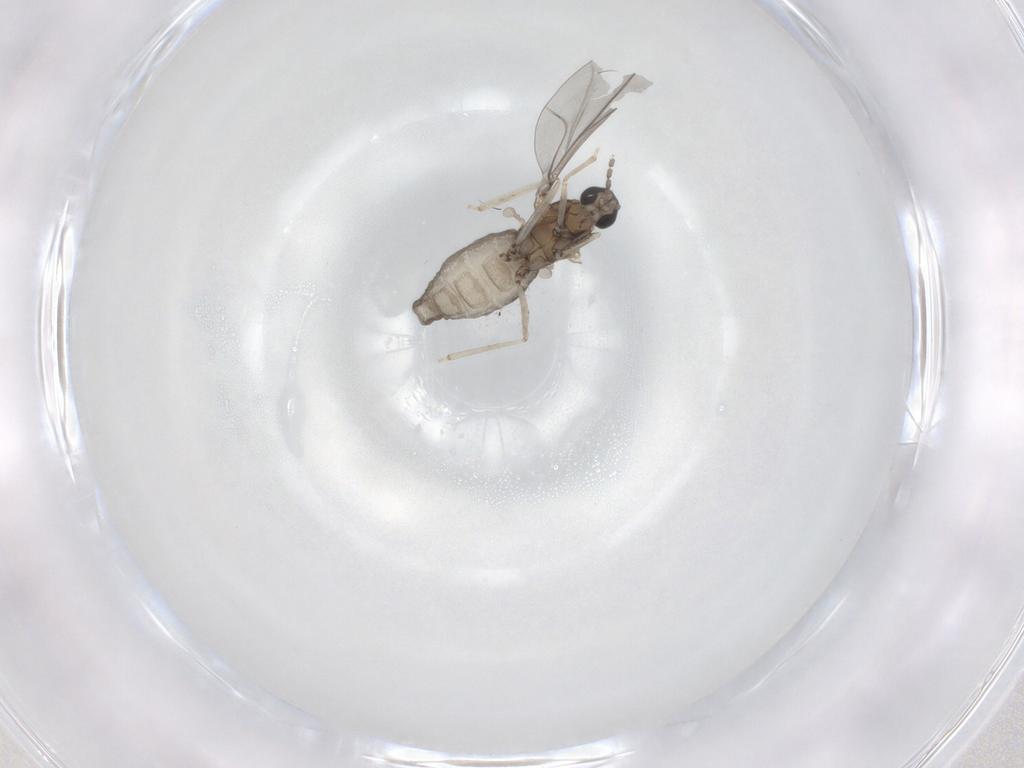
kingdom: Animalia
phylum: Arthropoda
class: Insecta
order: Diptera
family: Cecidomyiidae
